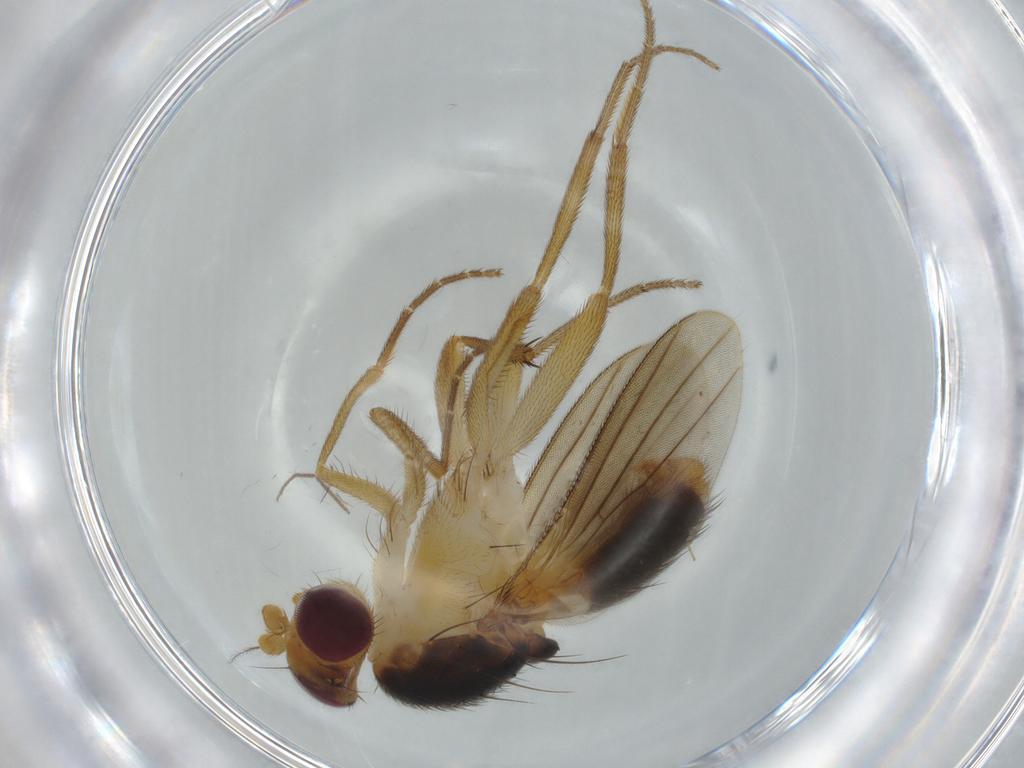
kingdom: Animalia
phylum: Arthropoda
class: Insecta
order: Diptera
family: Clusiidae
